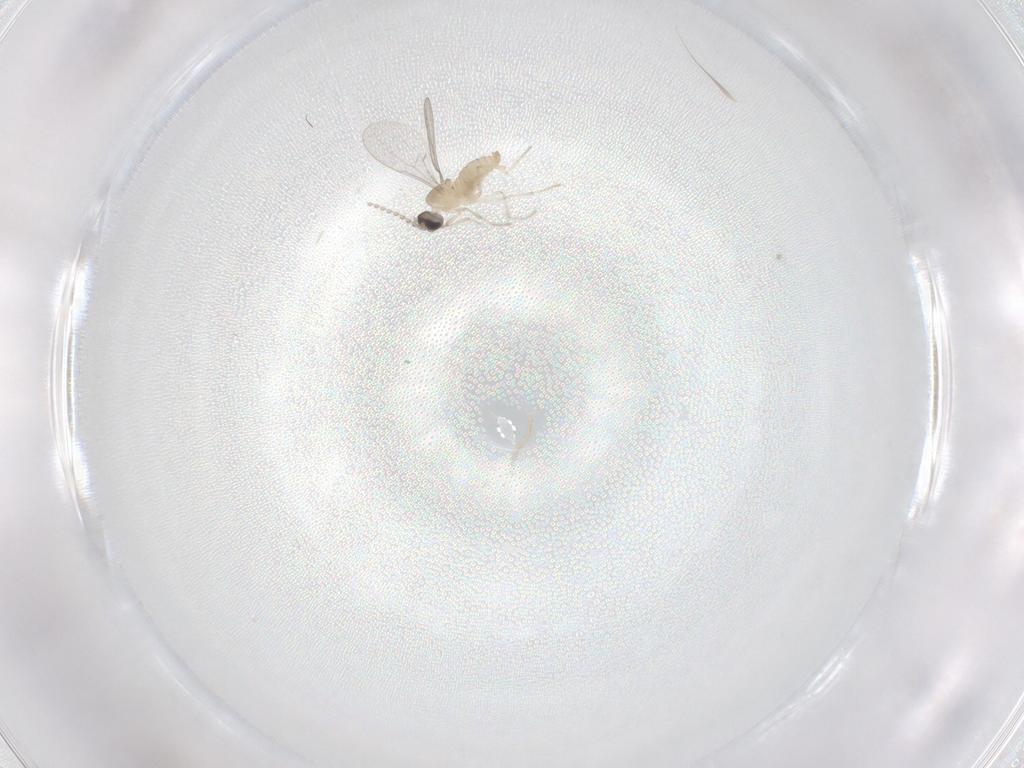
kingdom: Animalia
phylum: Arthropoda
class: Insecta
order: Diptera
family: Cecidomyiidae
